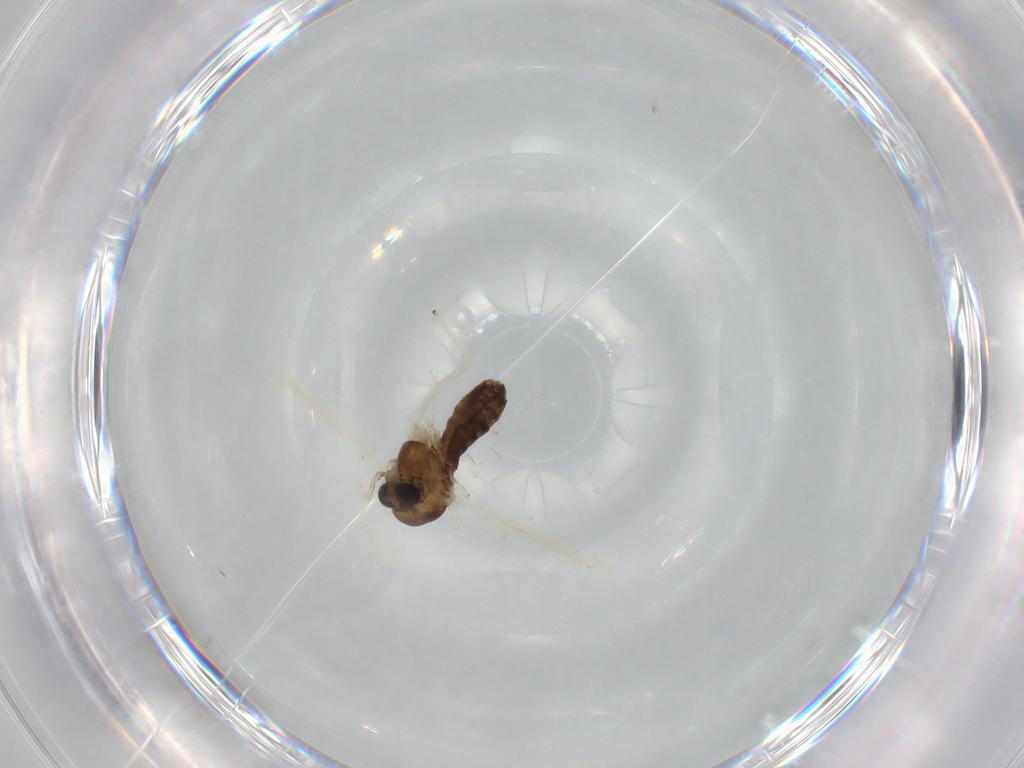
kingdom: Animalia
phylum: Arthropoda
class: Insecta
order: Diptera
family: Chironomidae
